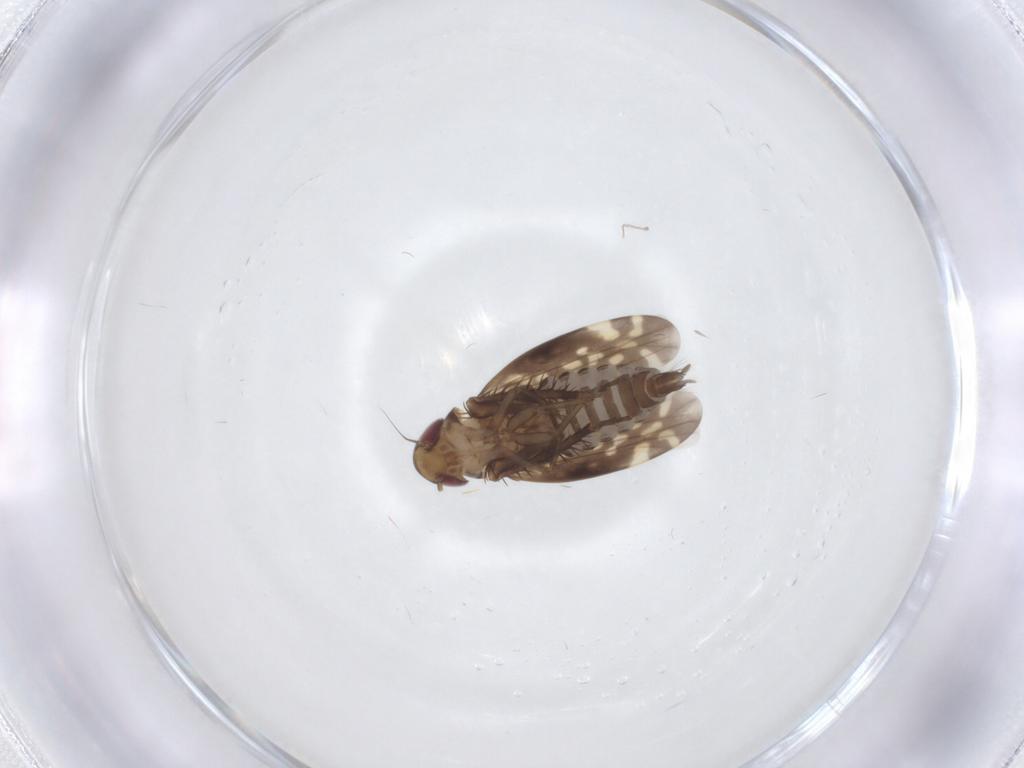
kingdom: Animalia
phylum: Arthropoda
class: Insecta
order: Hemiptera
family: Cicadellidae
